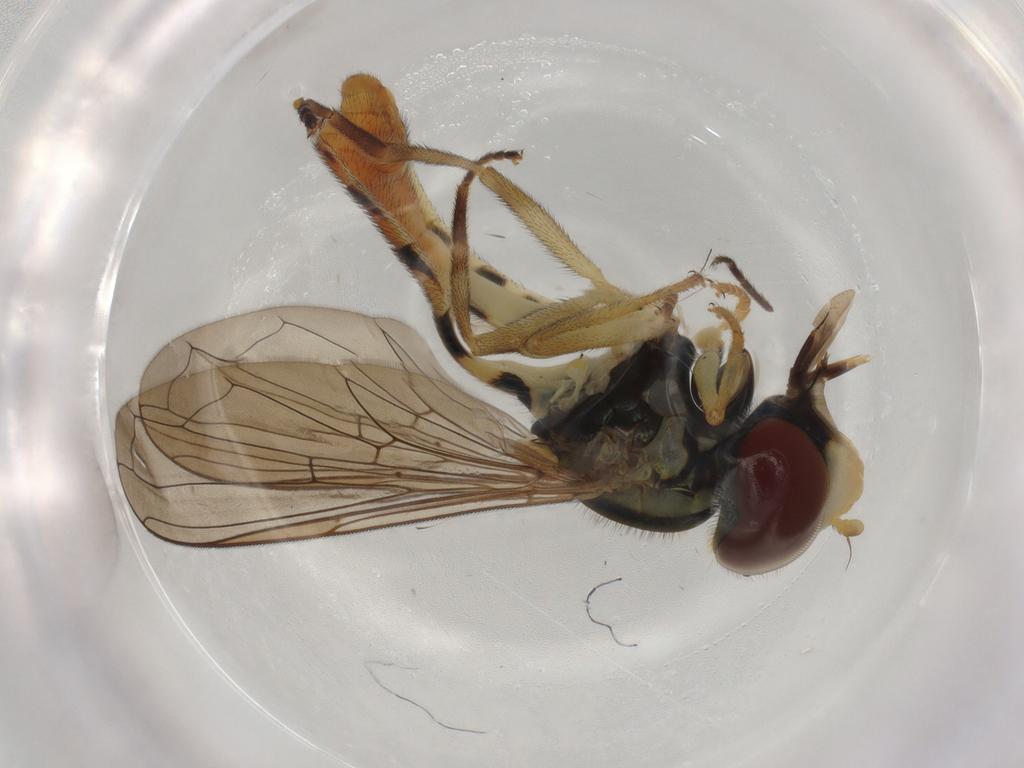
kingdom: Animalia
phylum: Arthropoda
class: Insecta
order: Diptera
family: Syrphidae
